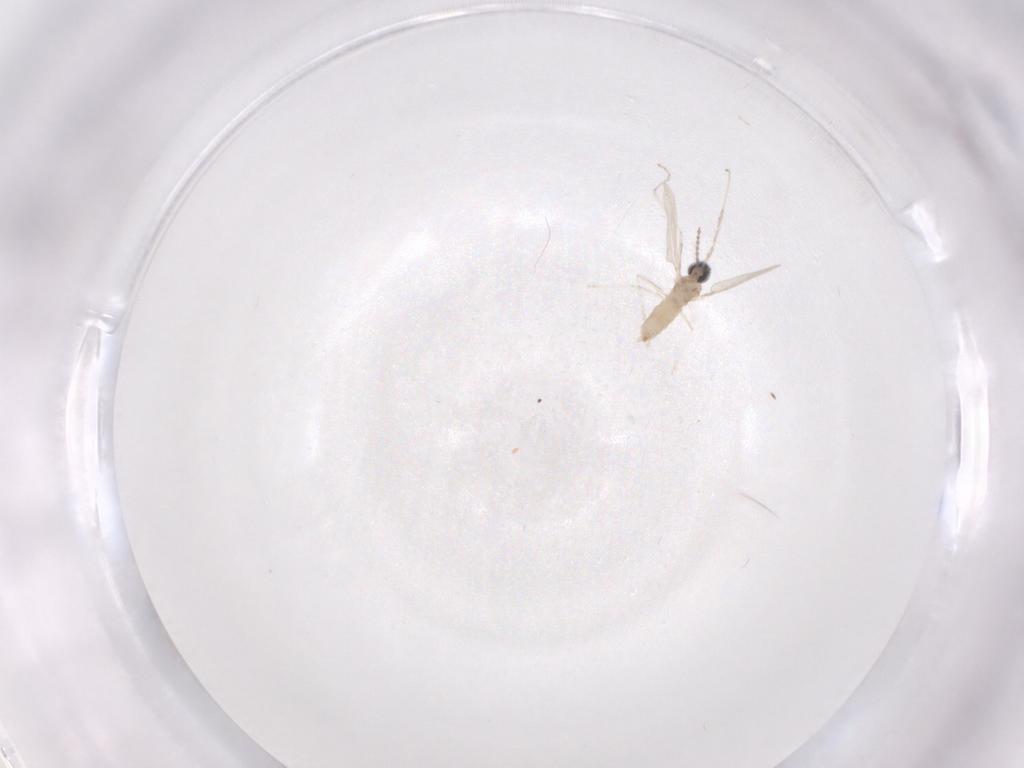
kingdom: Animalia
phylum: Arthropoda
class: Insecta
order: Diptera
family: Cecidomyiidae
